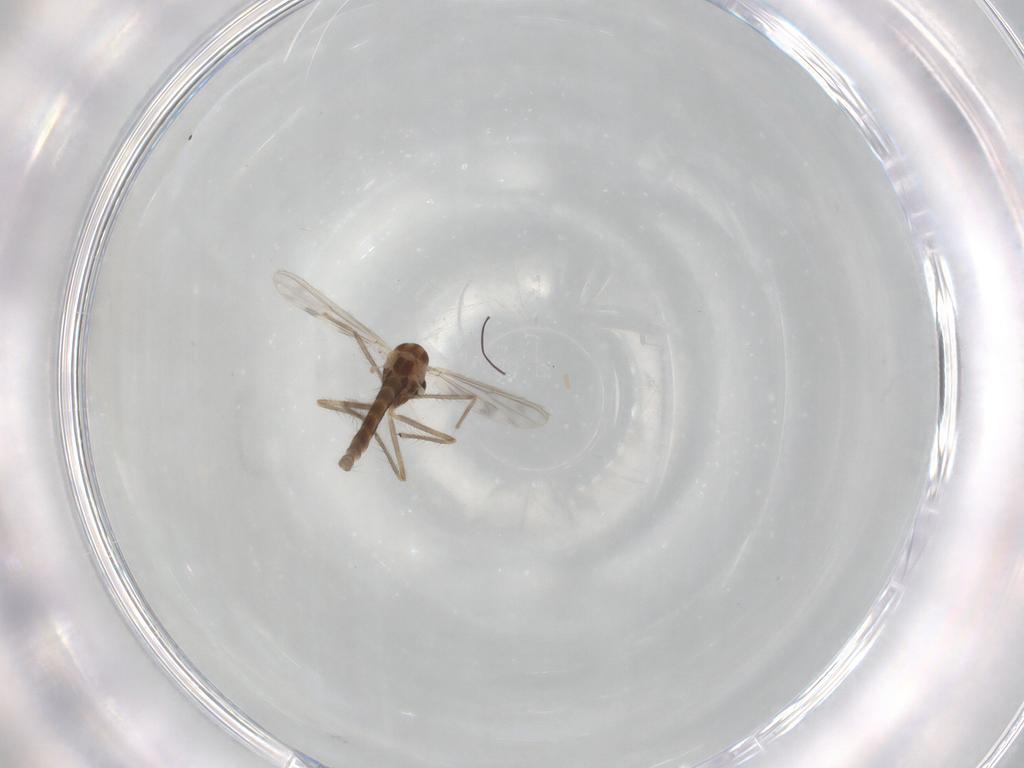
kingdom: Animalia
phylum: Arthropoda
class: Insecta
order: Diptera
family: Chironomidae
